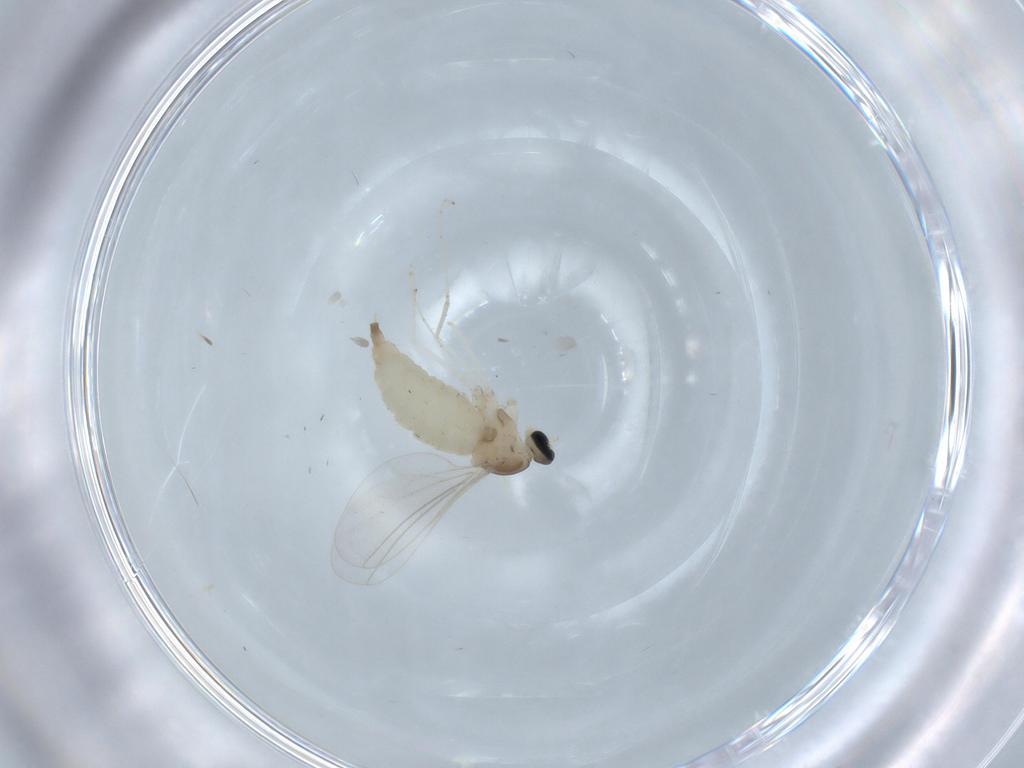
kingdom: Animalia
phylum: Arthropoda
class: Insecta
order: Diptera
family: Cecidomyiidae
